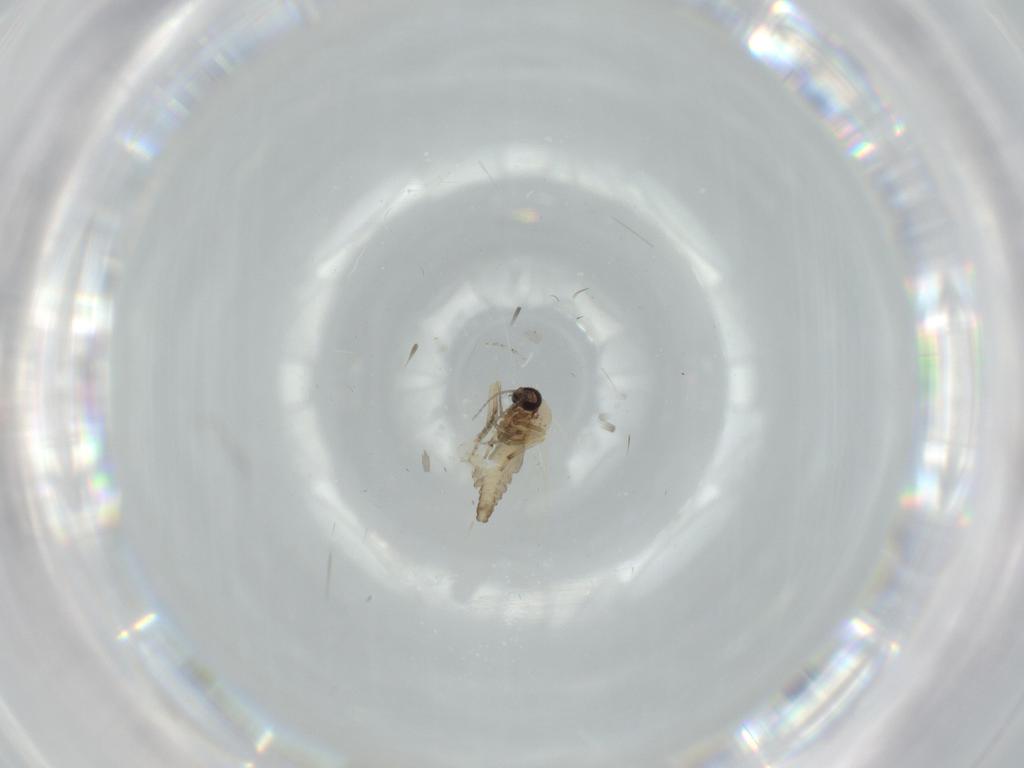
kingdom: Animalia
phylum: Arthropoda
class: Insecta
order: Diptera
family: Ceratopogonidae
